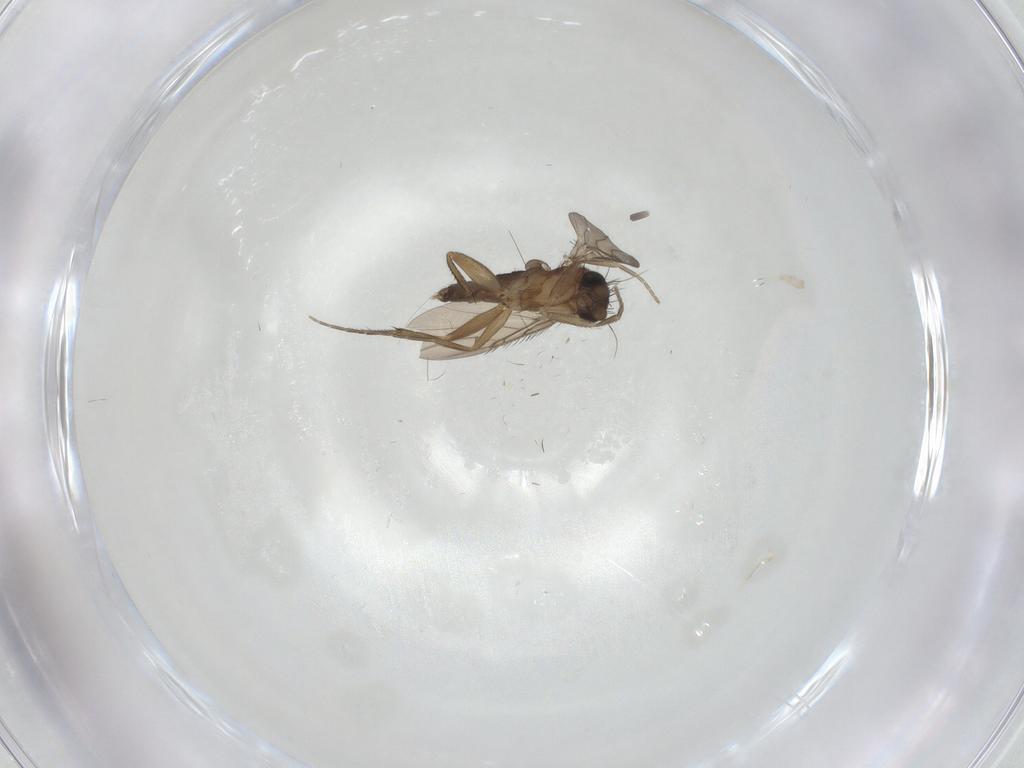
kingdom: Animalia
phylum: Arthropoda
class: Insecta
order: Diptera
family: Phoridae
